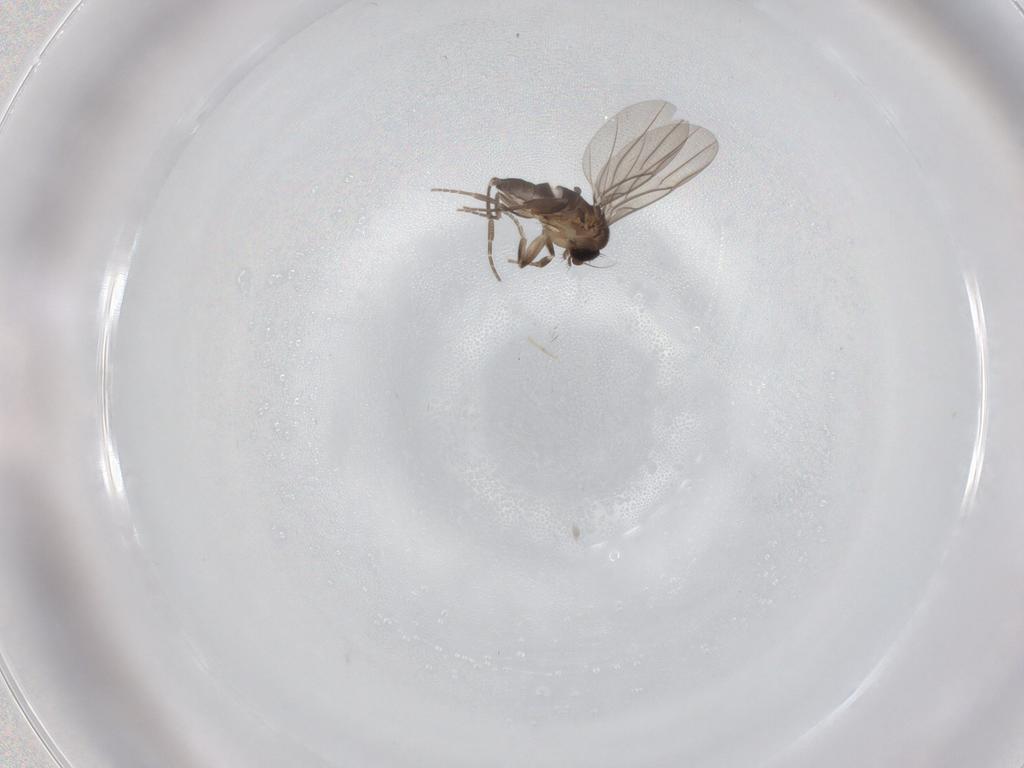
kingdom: Animalia
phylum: Arthropoda
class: Insecta
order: Diptera
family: Phoridae
